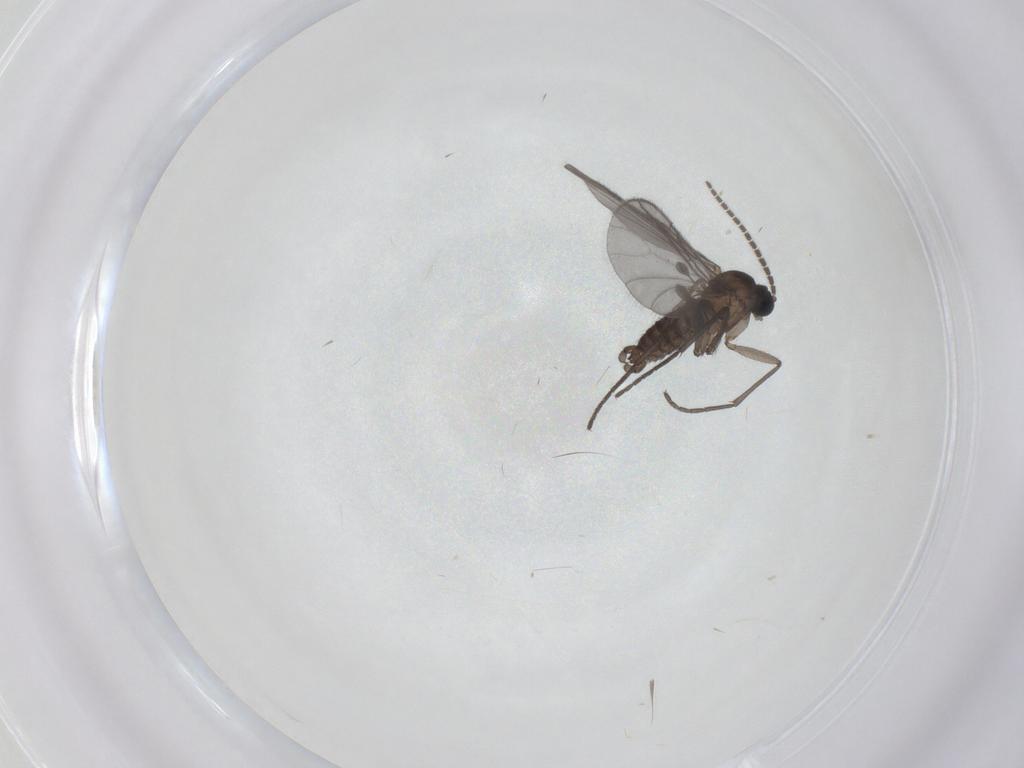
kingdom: Animalia
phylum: Arthropoda
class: Insecta
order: Diptera
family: Sciaridae
